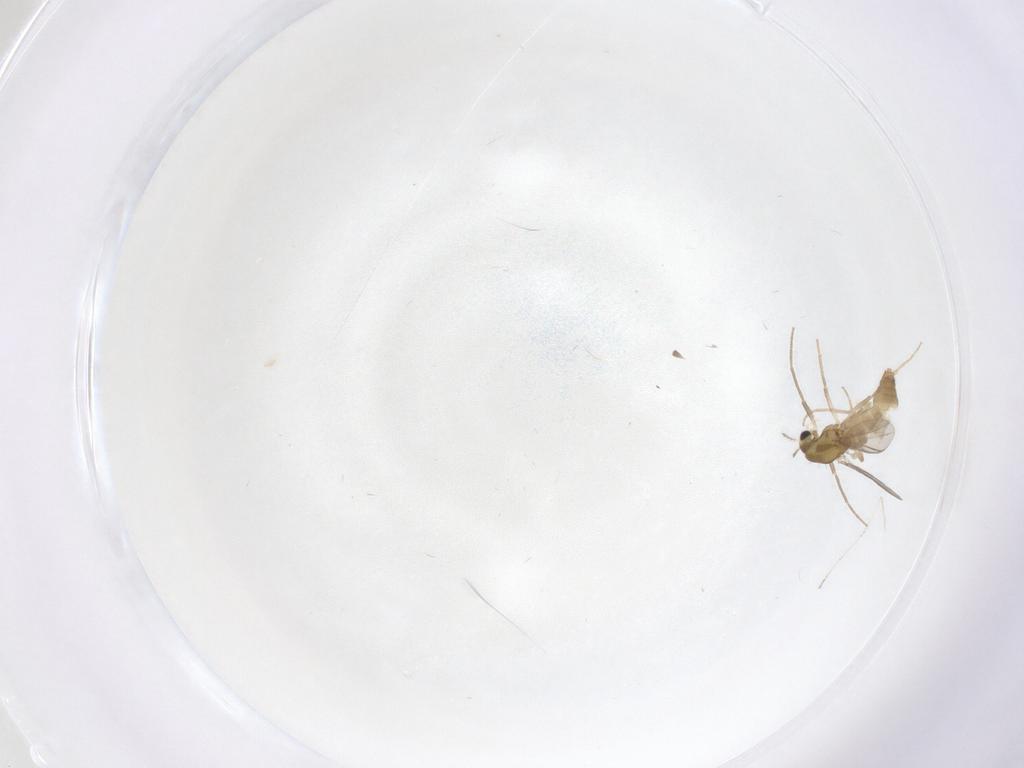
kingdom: Animalia
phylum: Arthropoda
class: Insecta
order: Diptera
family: Chironomidae
